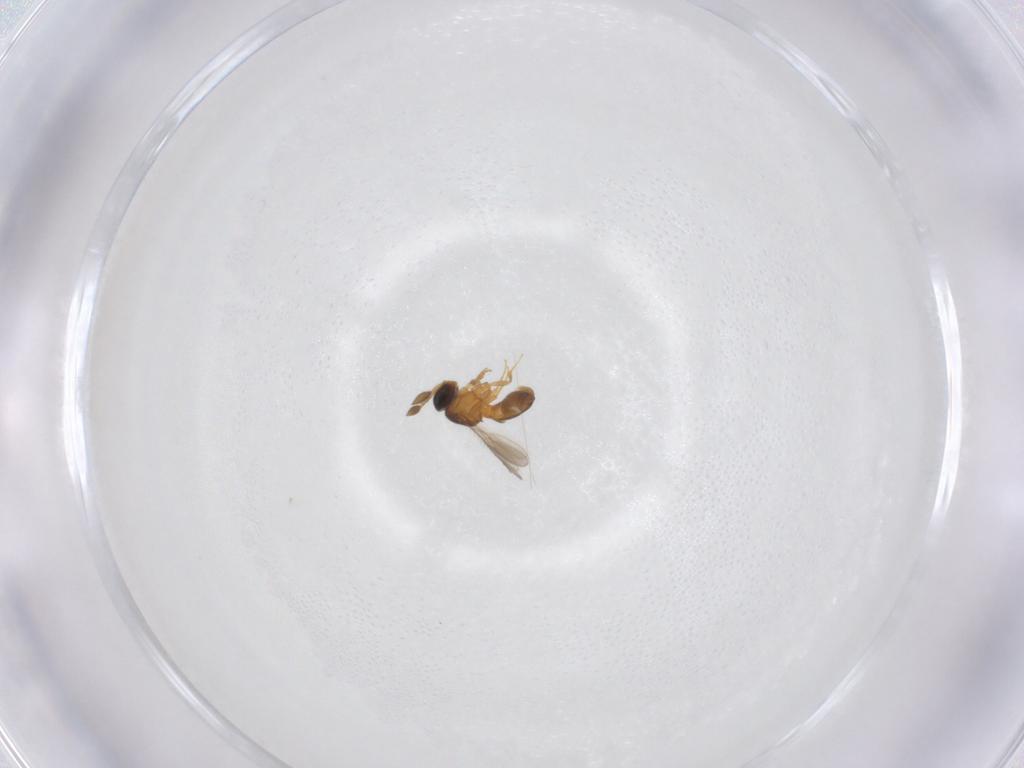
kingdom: Animalia
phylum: Arthropoda
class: Insecta
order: Hymenoptera
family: Scelionidae
